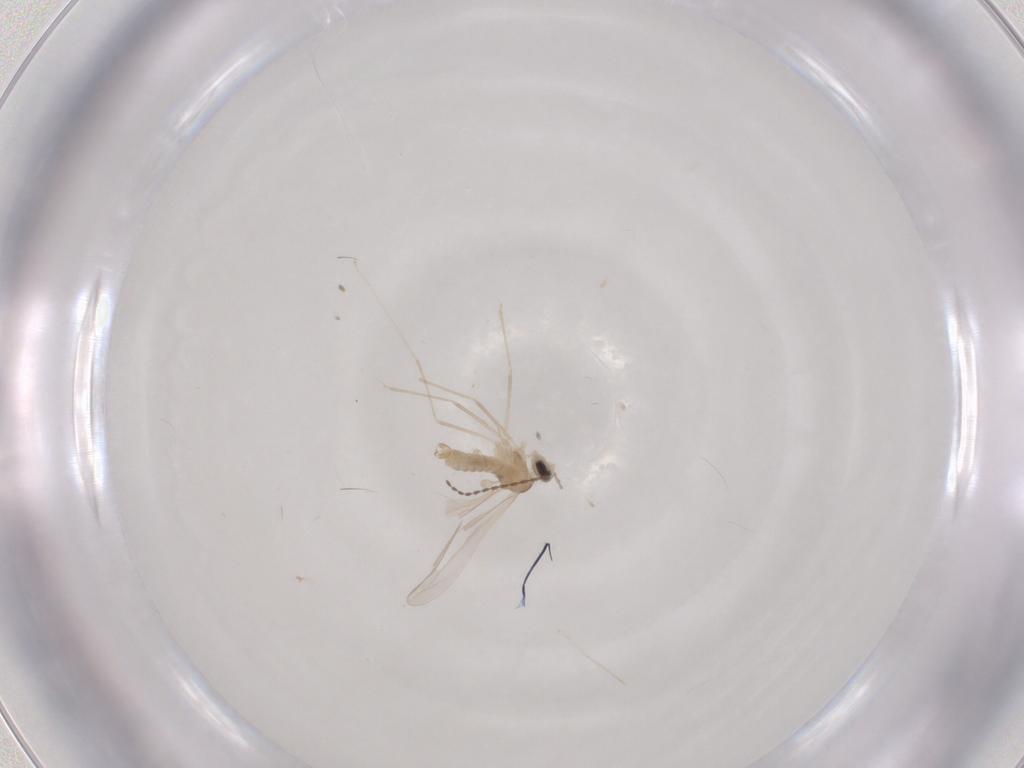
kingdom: Animalia
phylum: Arthropoda
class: Insecta
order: Diptera
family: Cecidomyiidae
